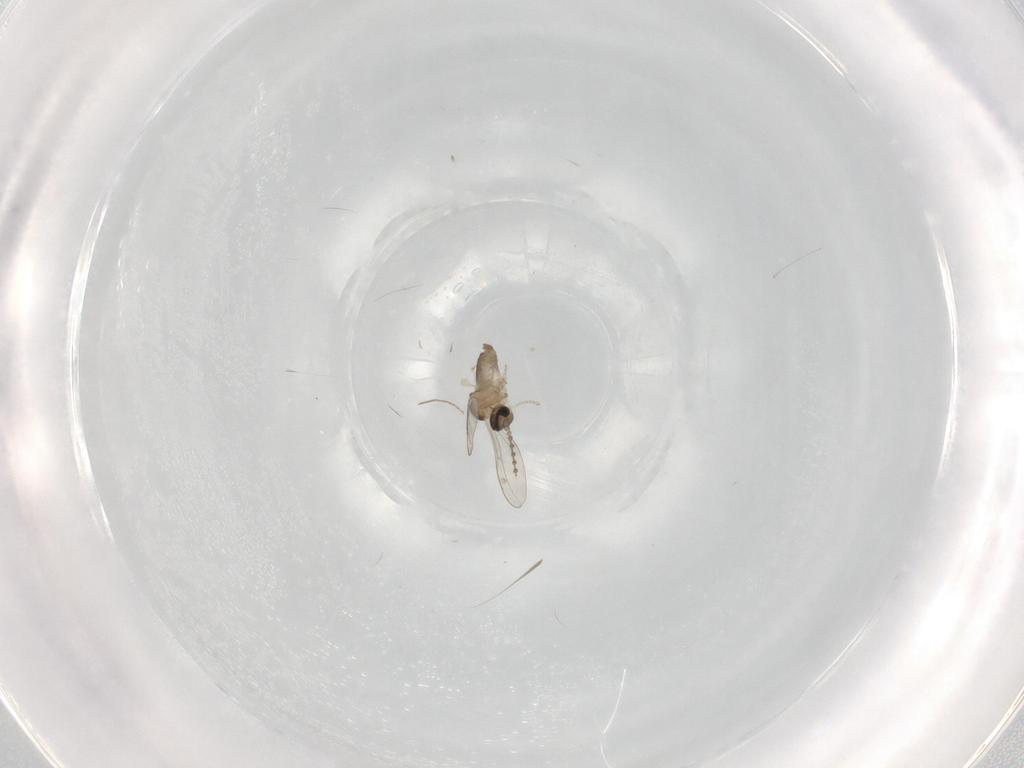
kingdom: Animalia
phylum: Arthropoda
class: Insecta
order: Diptera
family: Cecidomyiidae
